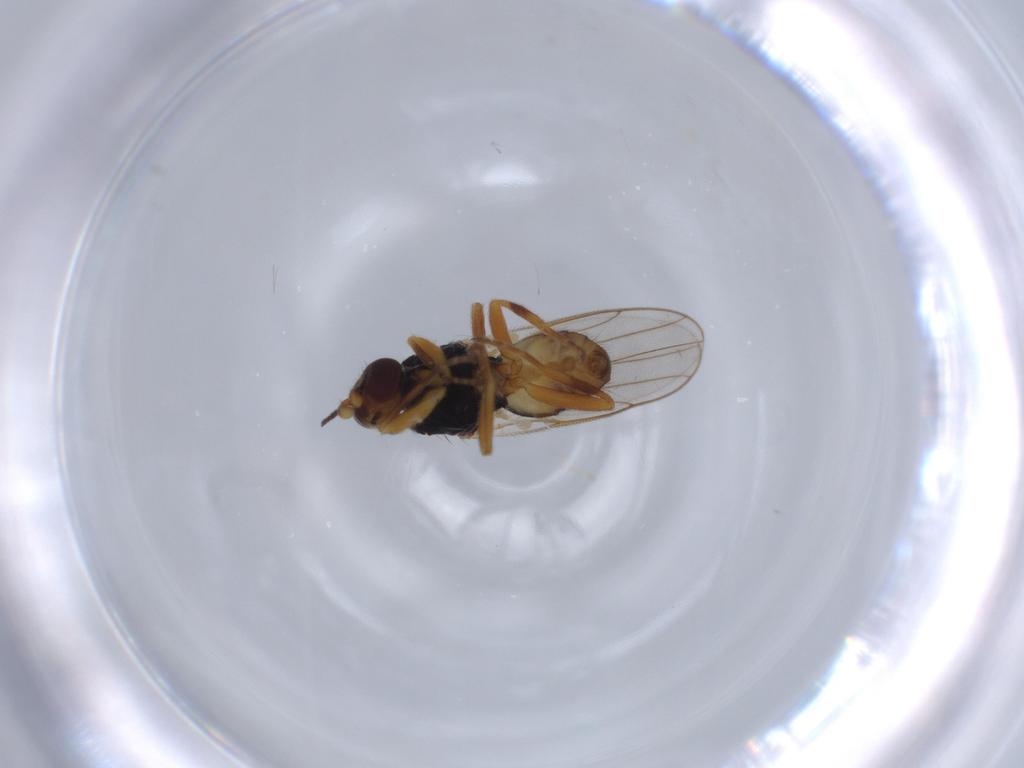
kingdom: Animalia
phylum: Arthropoda
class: Insecta
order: Diptera
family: Chloropidae
